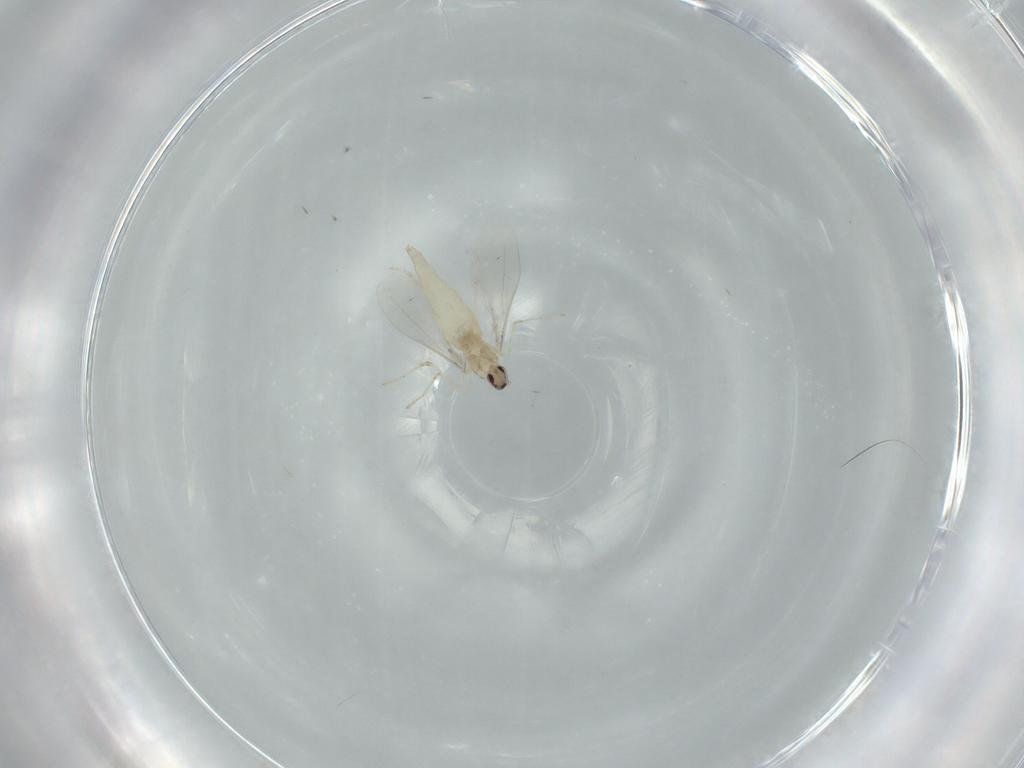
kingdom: Animalia
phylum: Arthropoda
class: Insecta
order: Diptera
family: Cecidomyiidae
